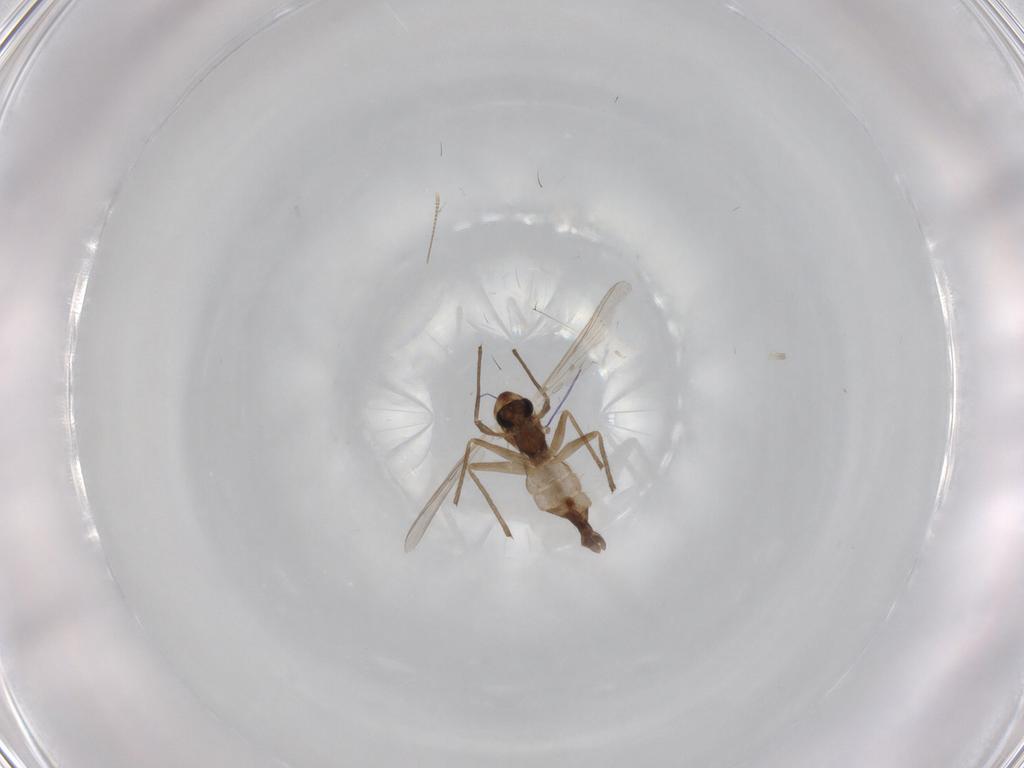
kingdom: Animalia
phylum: Arthropoda
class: Insecta
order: Diptera
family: Chironomidae
